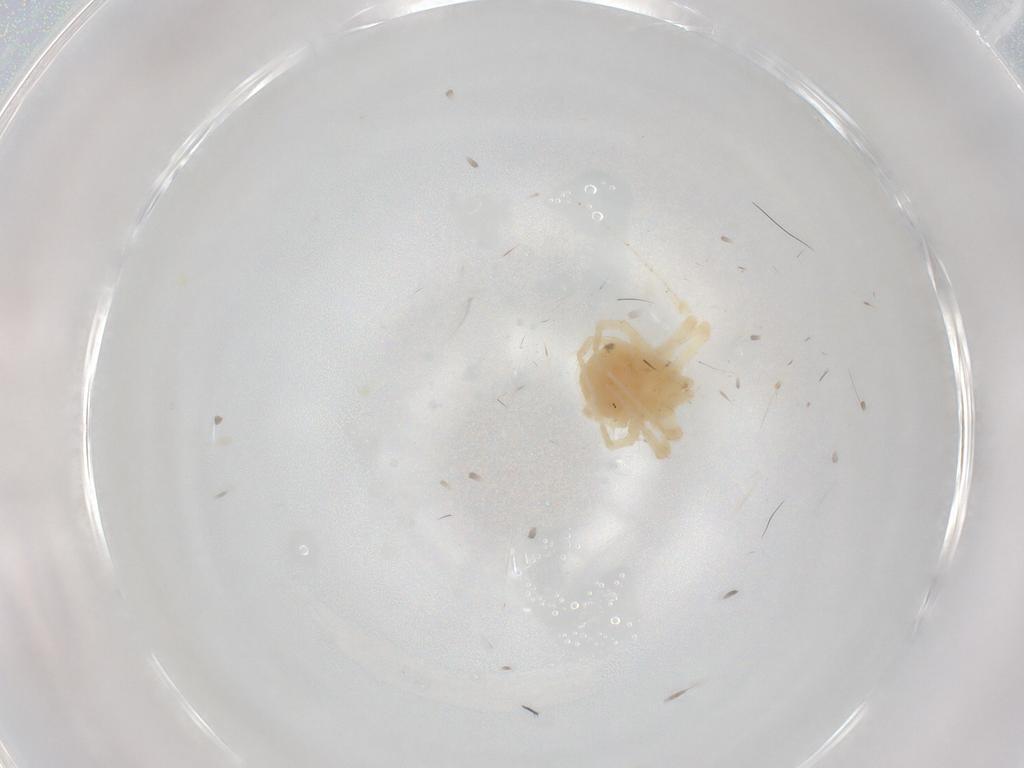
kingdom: Animalia
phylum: Arthropoda
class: Arachnida
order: Trombidiformes
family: Anystidae
